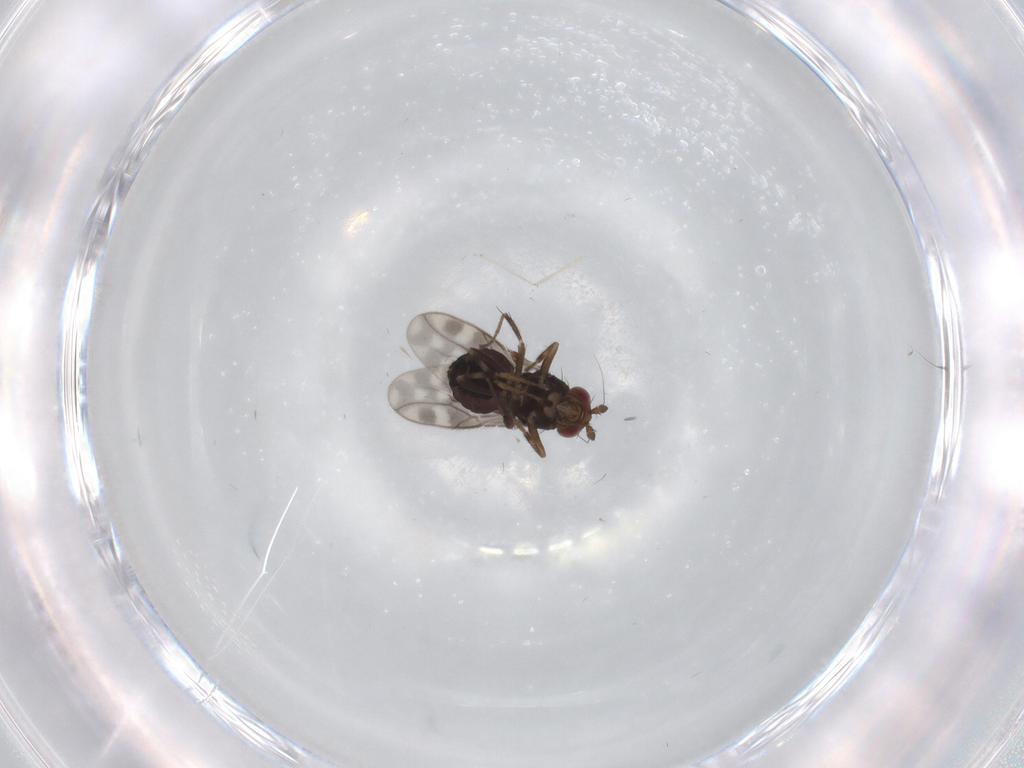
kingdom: Animalia
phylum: Arthropoda
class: Insecta
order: Diptera
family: Sphaeroceridae
